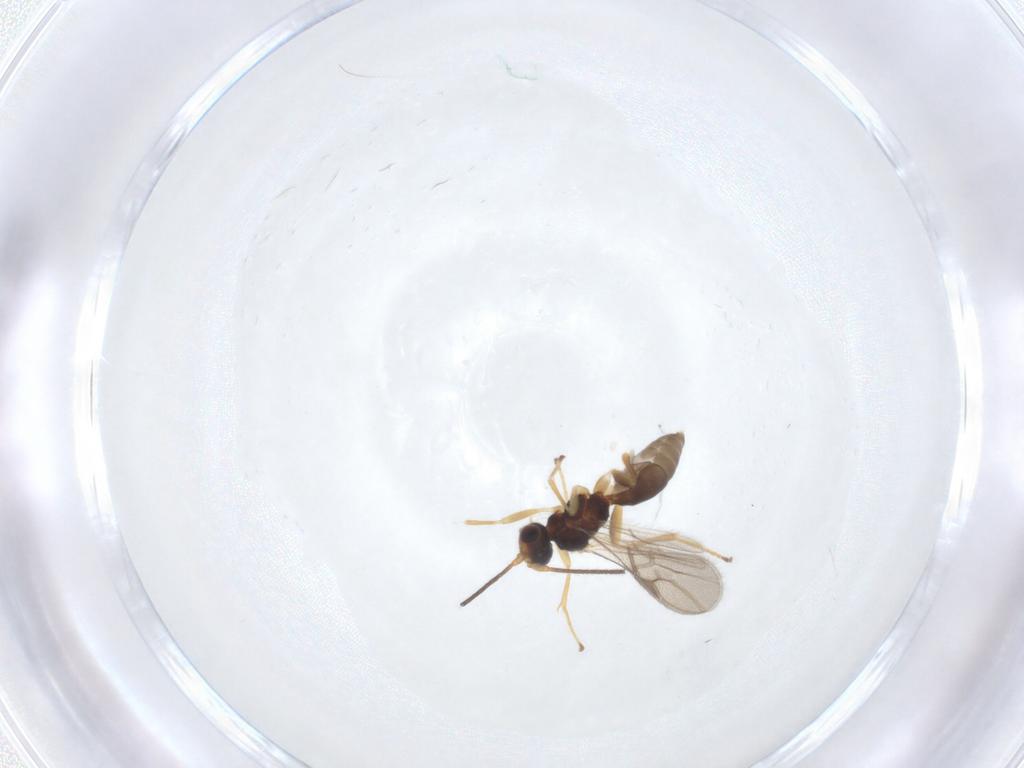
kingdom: Animalia
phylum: Arthropoda
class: Insecta
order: Hymenoptera
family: Braconidae
